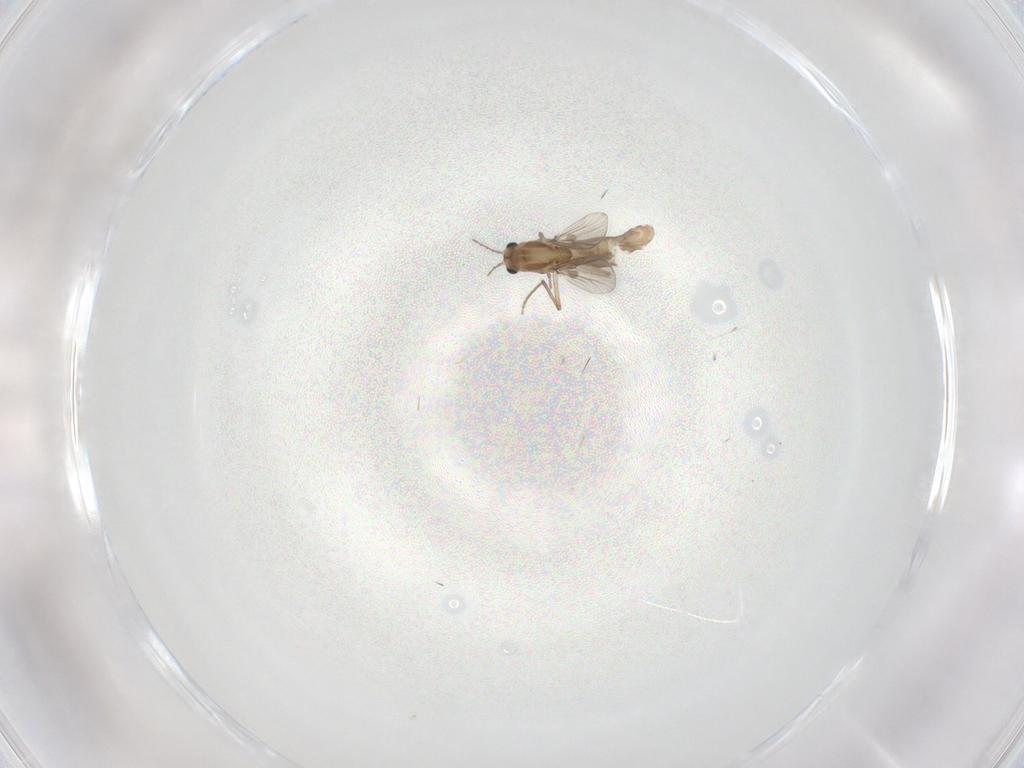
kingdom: Animalia
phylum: Arthropoda
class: Insecta
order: Diptera
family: Chironomidae
